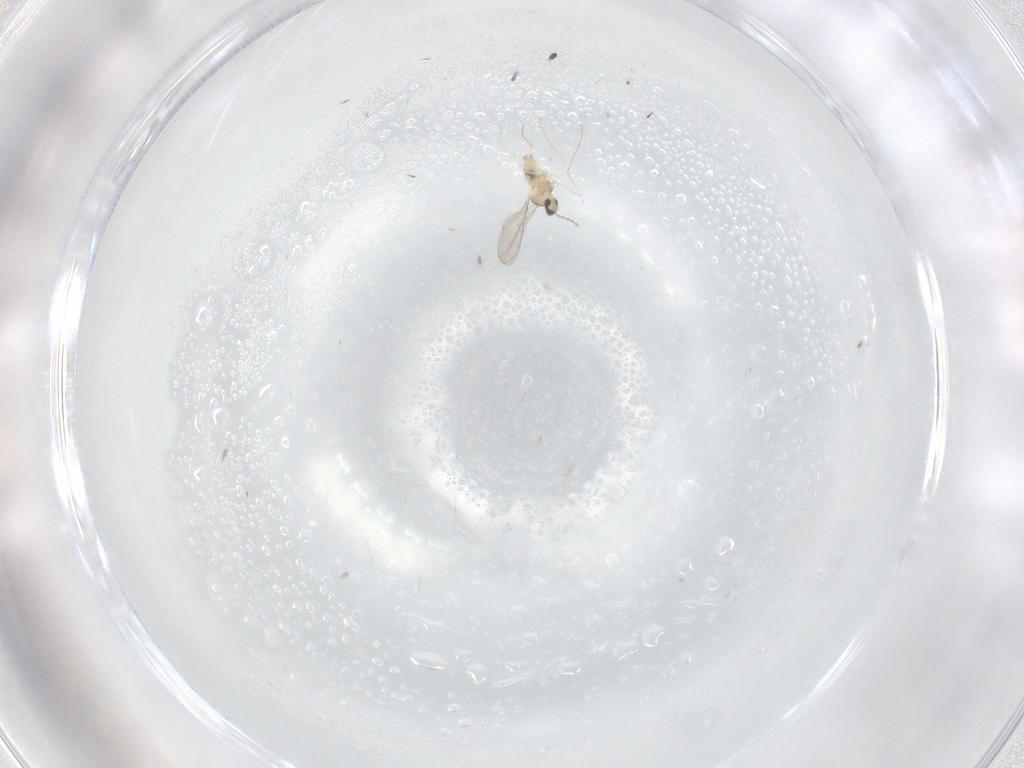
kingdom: Animalia
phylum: Arthropoda
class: Insecta
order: Diptera
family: Cecidomyiidae
